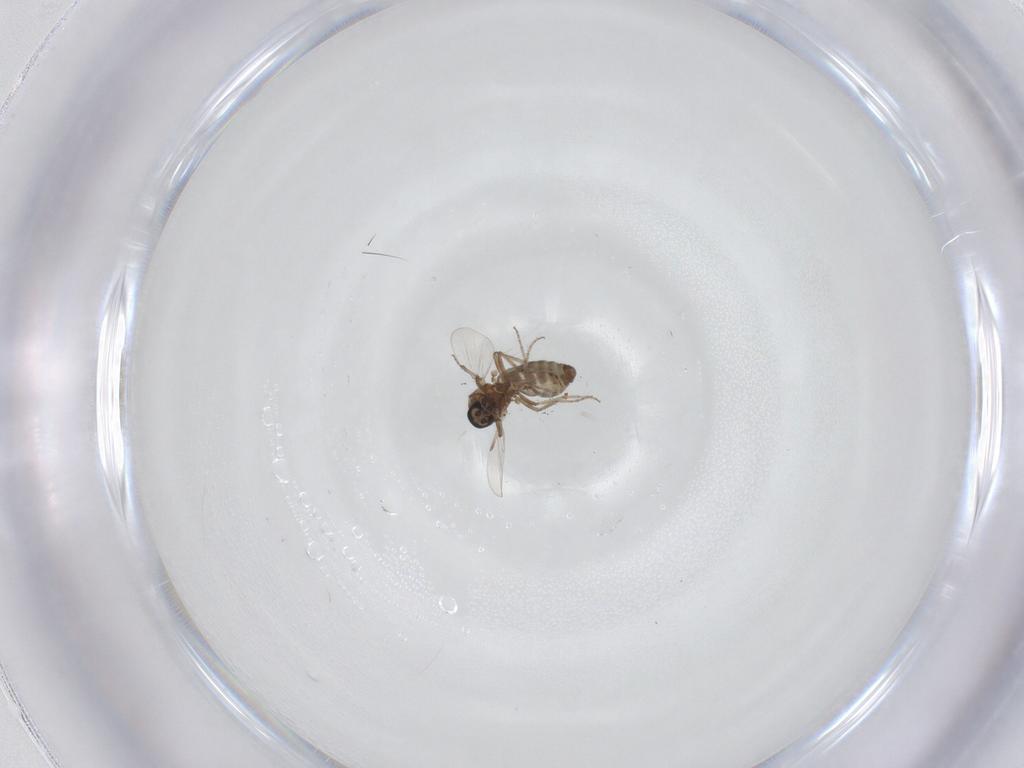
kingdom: Animalia
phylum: Arthropoda
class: Insecta
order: Diptera
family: Ceratopogonidae
